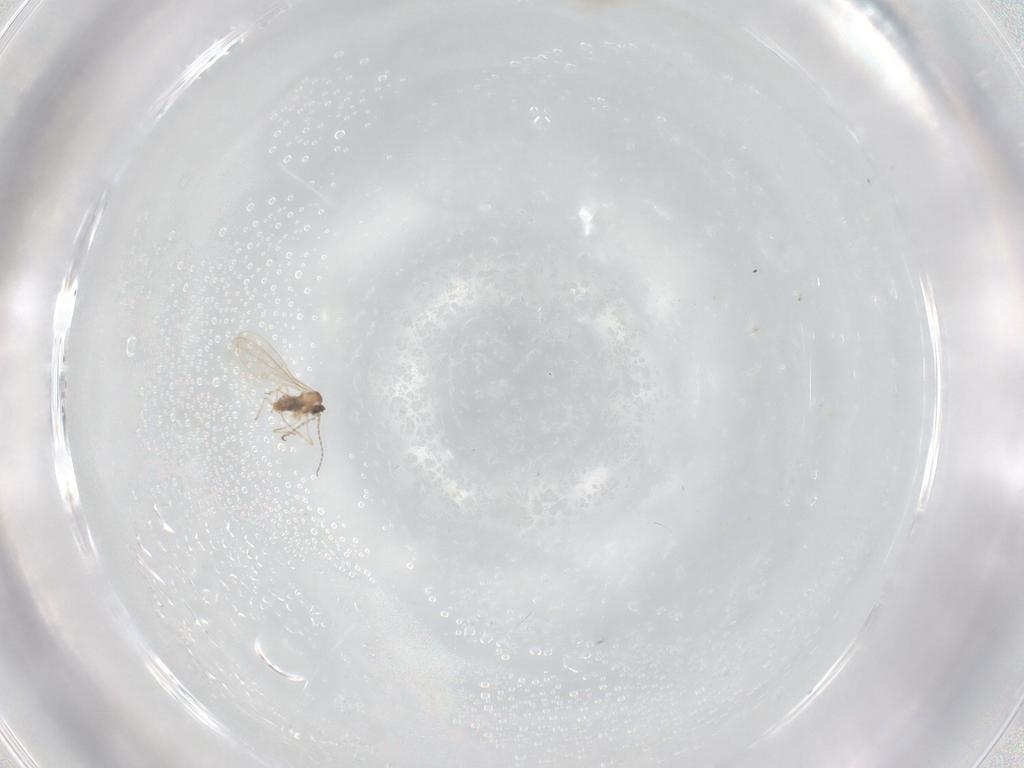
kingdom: Animalia
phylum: Arthropoda
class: Insecta
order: Diptera
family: Chironomidae
